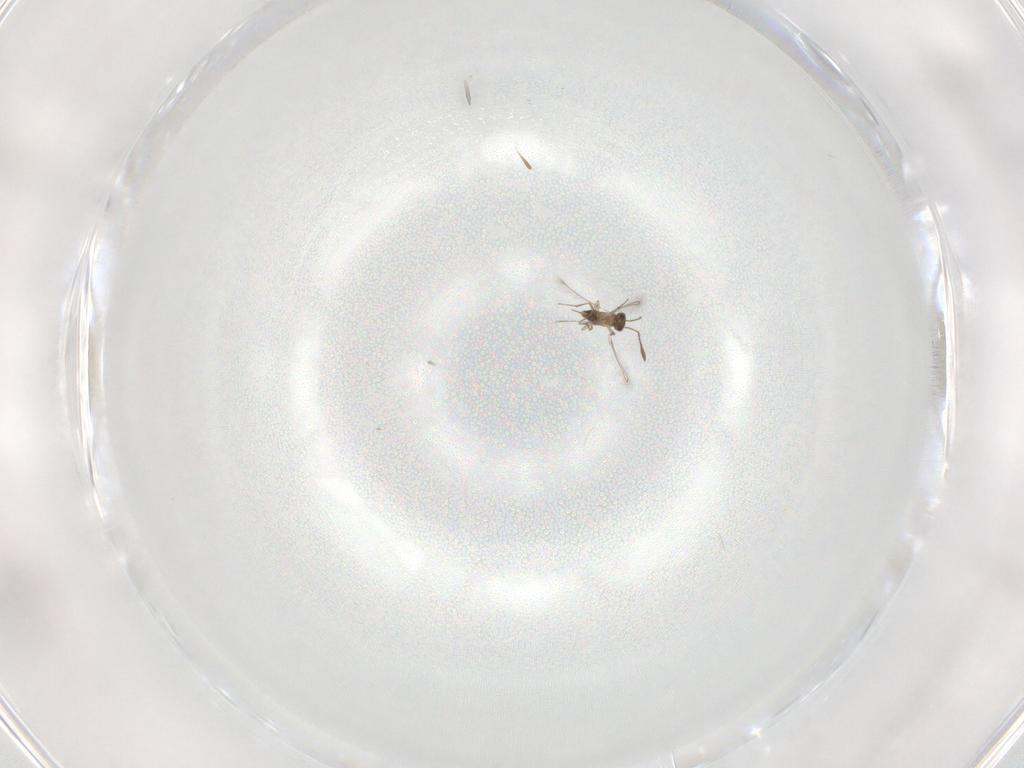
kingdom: Animalia
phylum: Arthropoda
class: Insecta
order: Hymenoptera
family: Mymaridae
